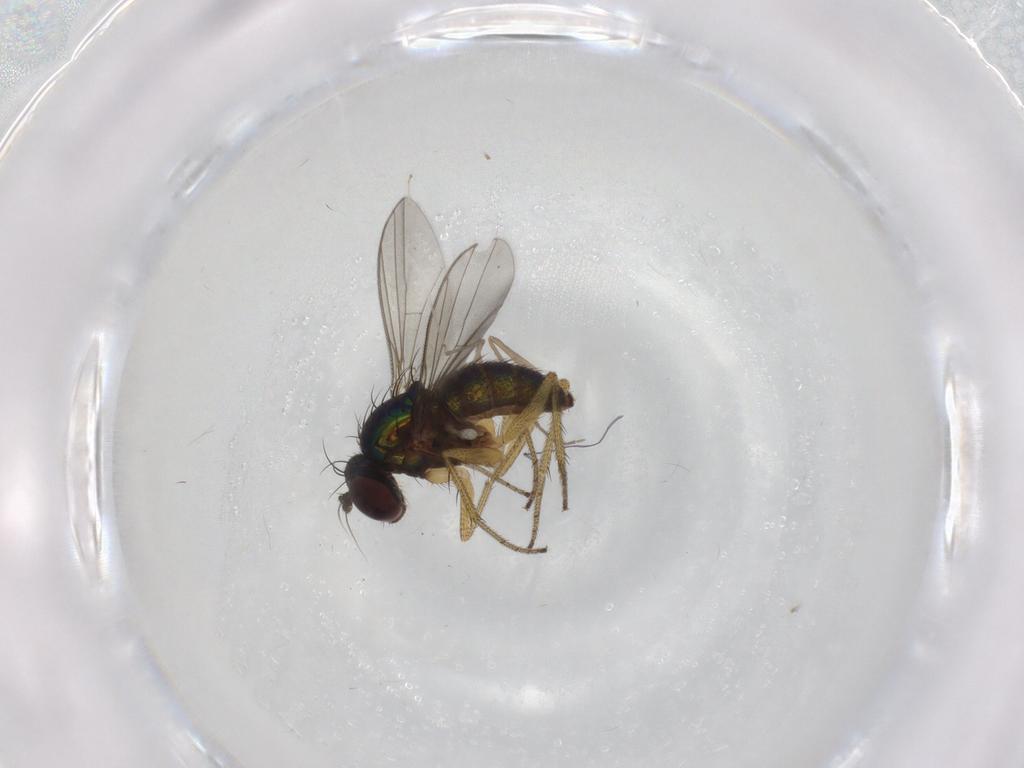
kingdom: Animalia
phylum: Arthropoda
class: Insecta
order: Diptera
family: Chironomidae
